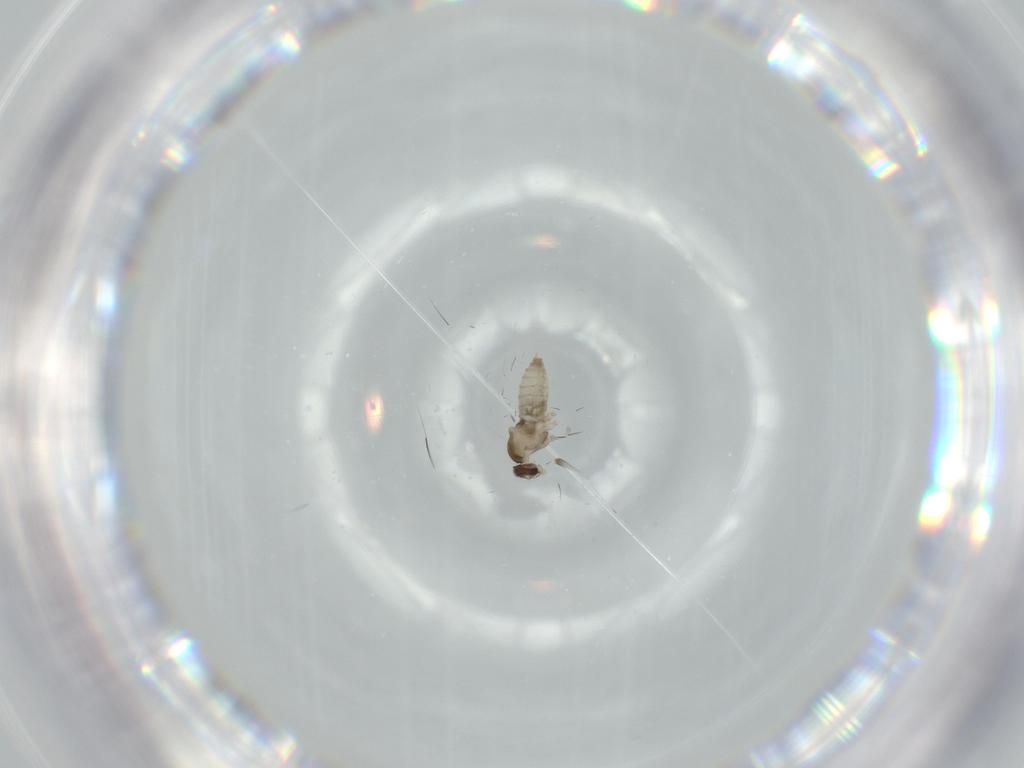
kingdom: Animalia
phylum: Arthropoda
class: Insecta
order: Diptera
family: Cecidomyiidae
